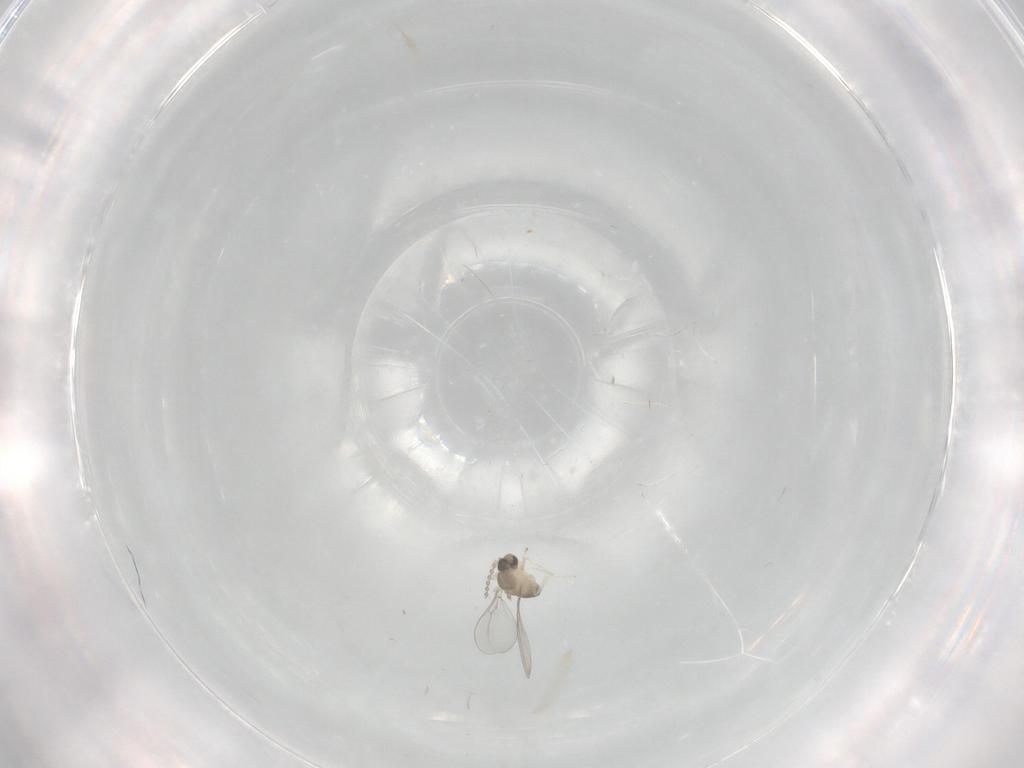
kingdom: Animalia
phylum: Arthropoda
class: Insecta
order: Diptera
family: Cecidomyiidae
